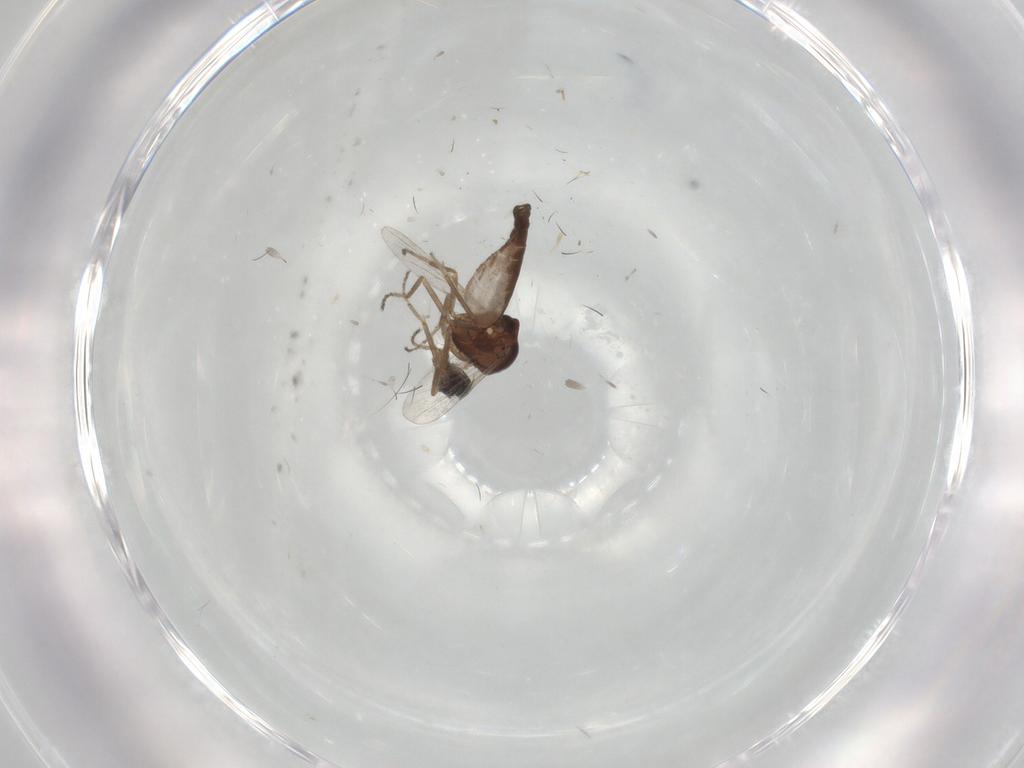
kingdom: Animalia
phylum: Arthropoda
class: Insecta
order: Diptera
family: Ceratopogonidae
